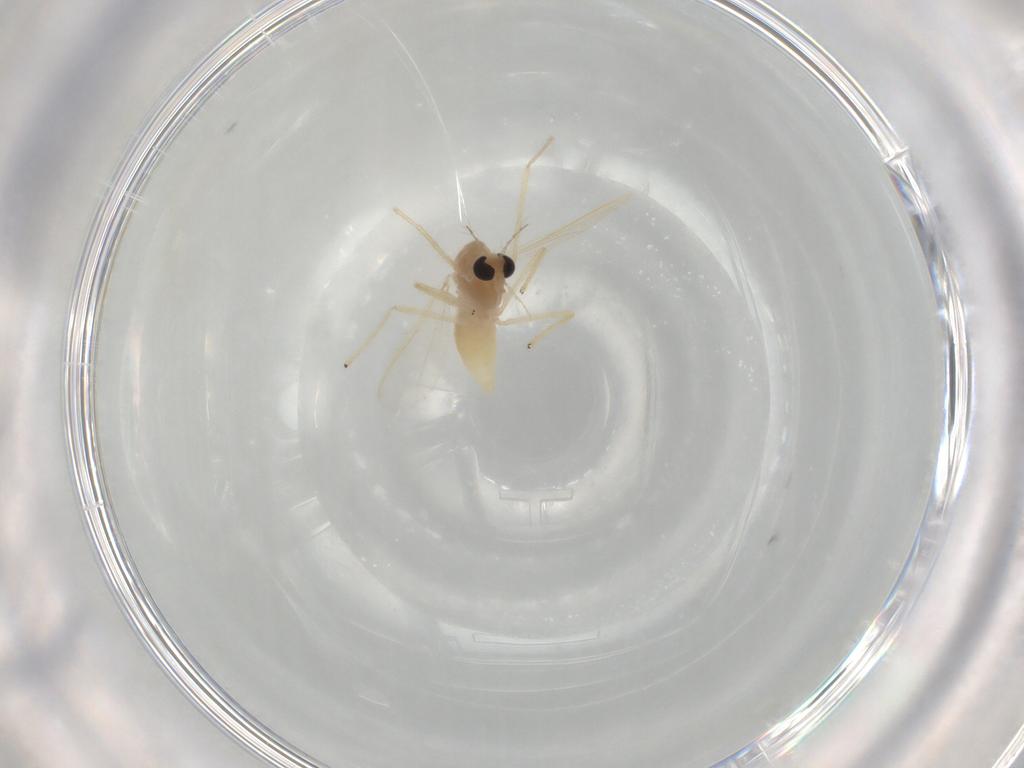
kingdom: Animalia
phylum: Arthropoda
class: Insecta
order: Diptera
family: Chironomidae
